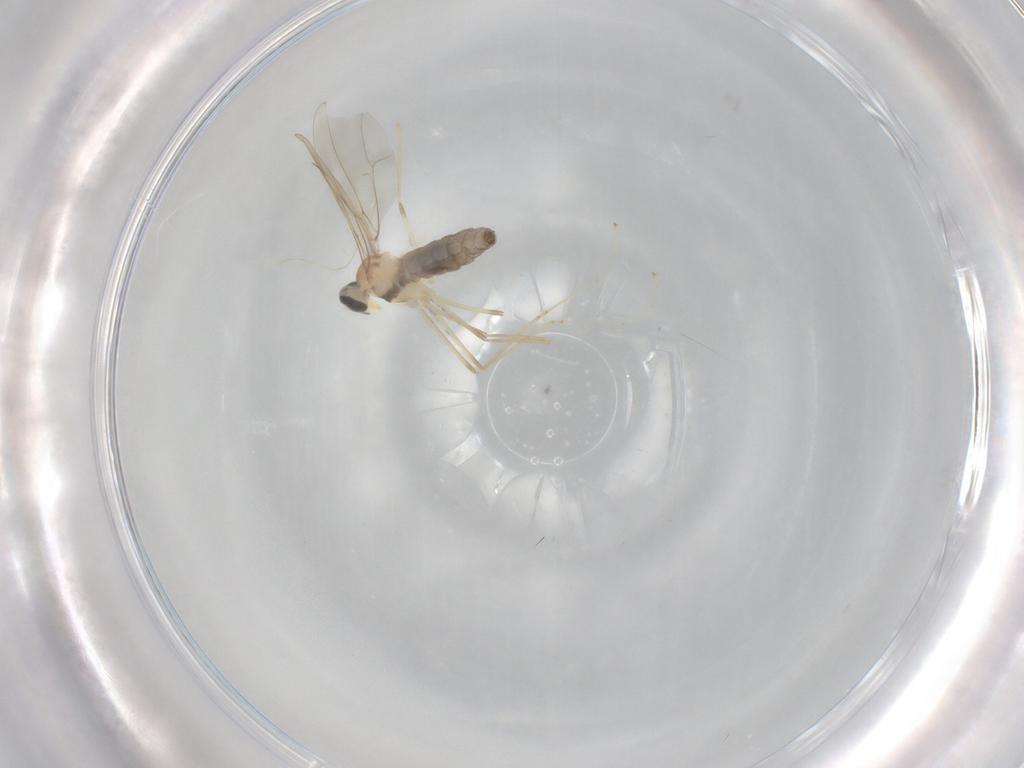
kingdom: Animalia
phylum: Arthropoda
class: Insecta
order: Diptera
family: Cecidomyiidae
